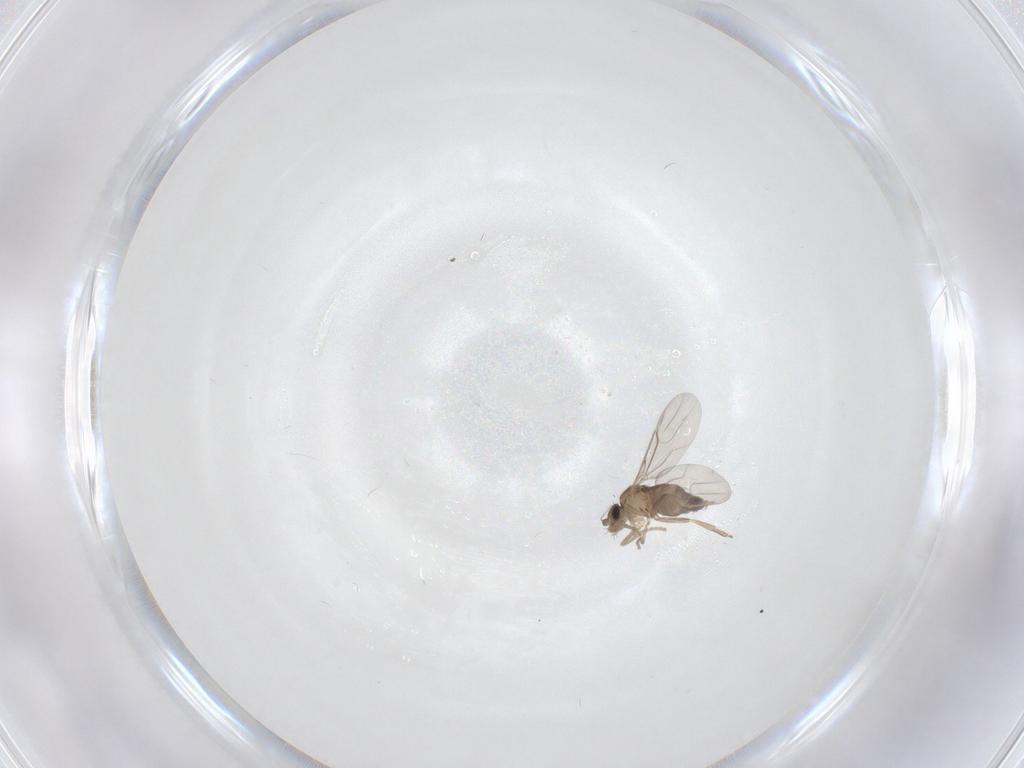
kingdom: Animalia
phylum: Arthropoda
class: Insecta
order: Diptera
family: Phoridae
